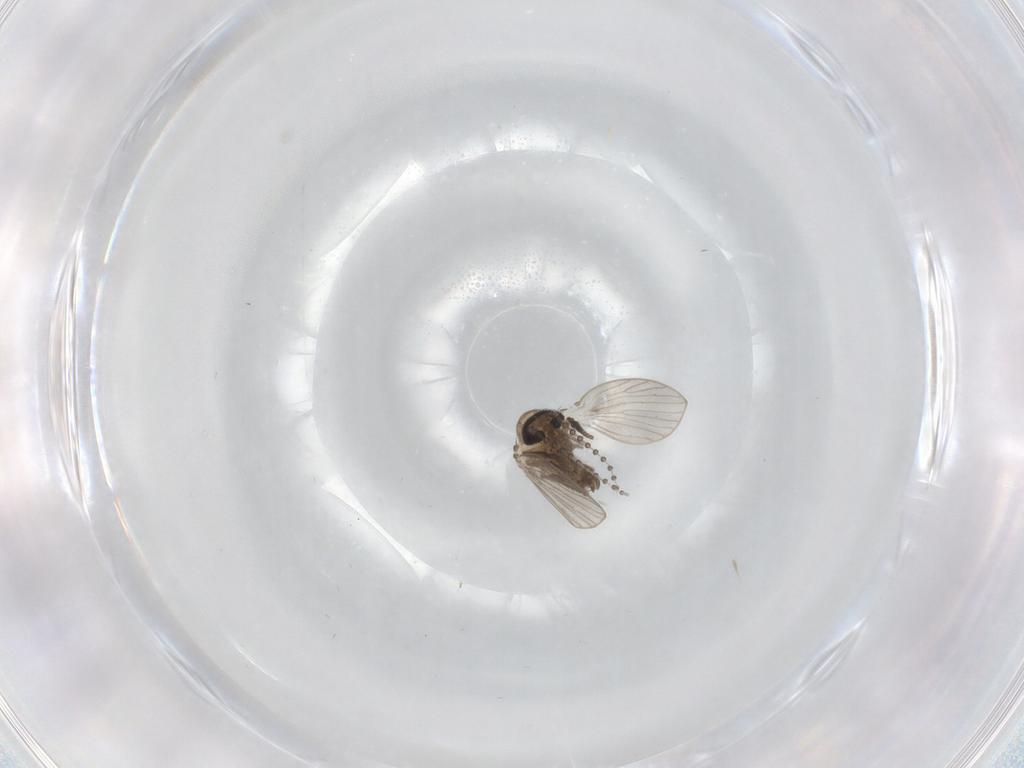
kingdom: Animalia
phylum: Arthropoda
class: Insecta
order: Diptera
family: Psychodidae
